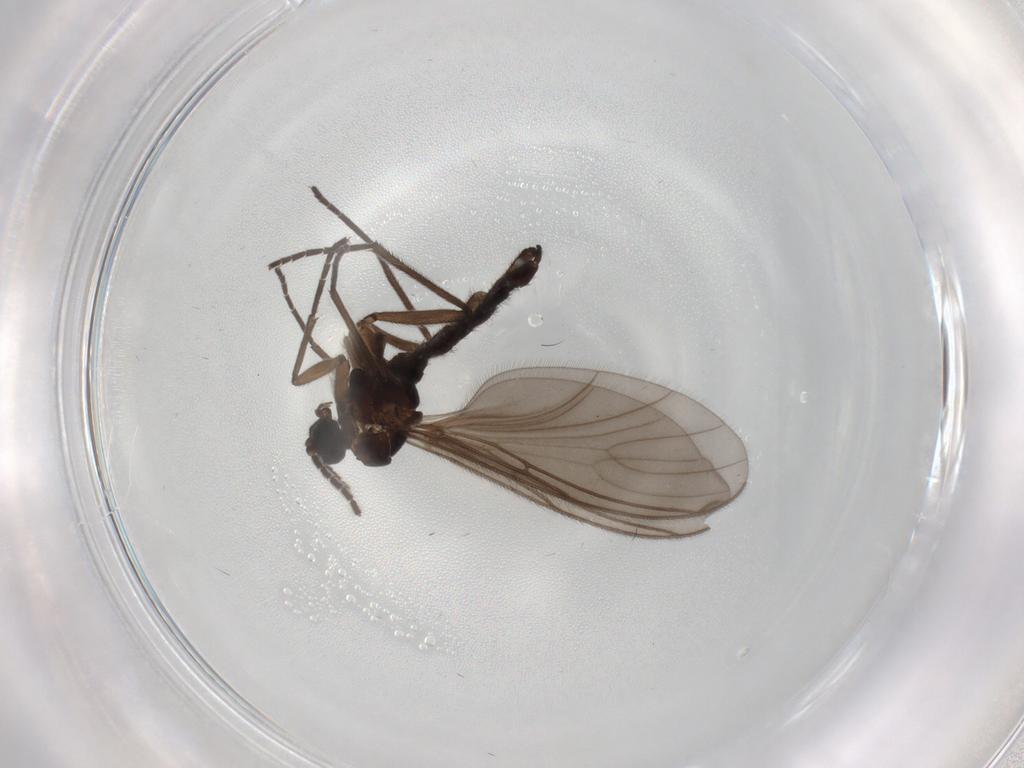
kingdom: Animalia
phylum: Arthropoda
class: Insecta
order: Diptera
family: Sciaridae
